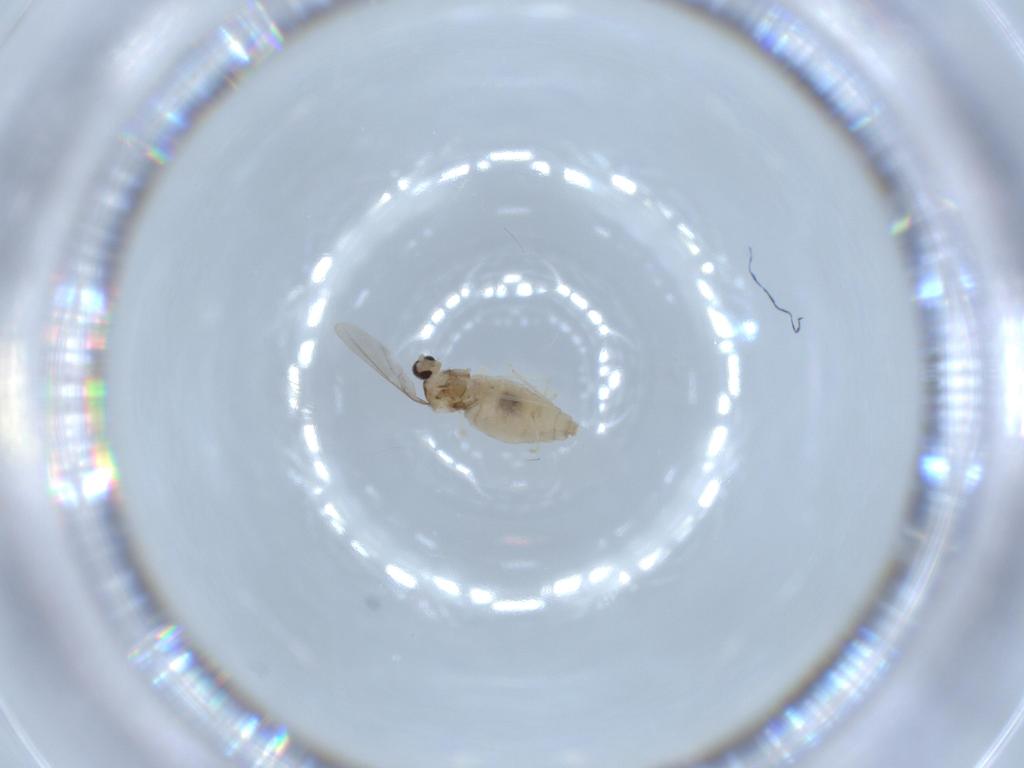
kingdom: Animalia
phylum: Arthropoda
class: Insecta
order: Diptera
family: Cecidomyiidae
